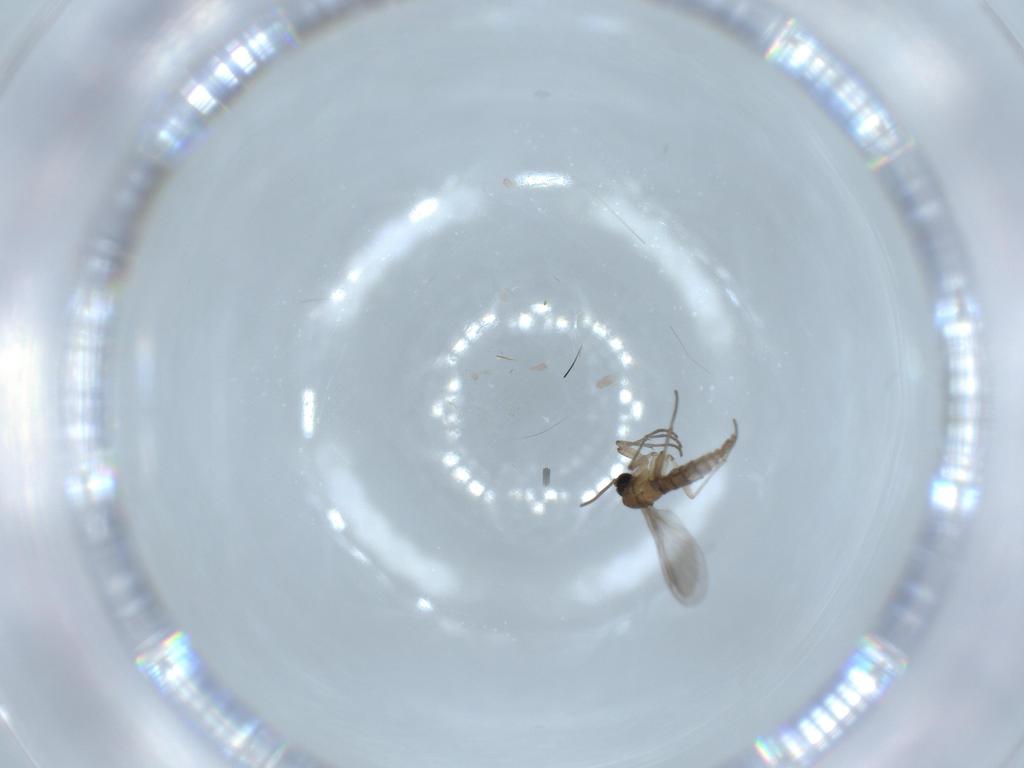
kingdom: Animalia
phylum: Arthropoda
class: Insecta
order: Diptera
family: Sciaridae
